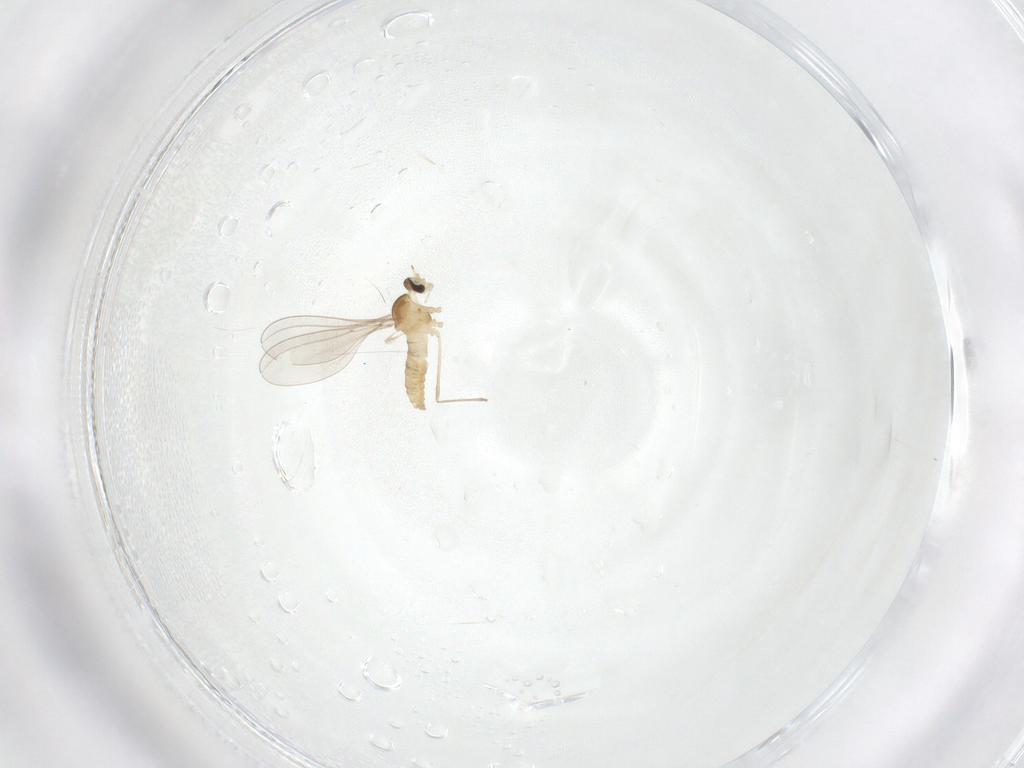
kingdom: Animalia
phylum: Arthropoda
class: Insecta
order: Diptera
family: Cecidomyiidae
